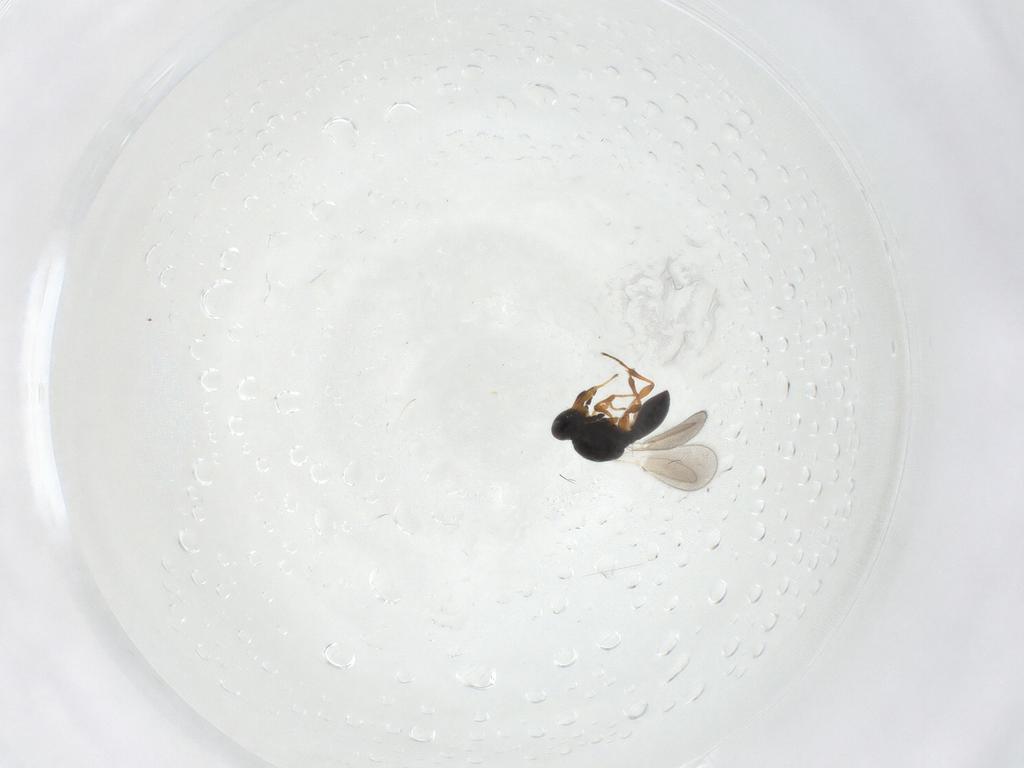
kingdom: Animalia
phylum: Arthropoda
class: Insecta
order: Hymenoptera
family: Platygastridae
